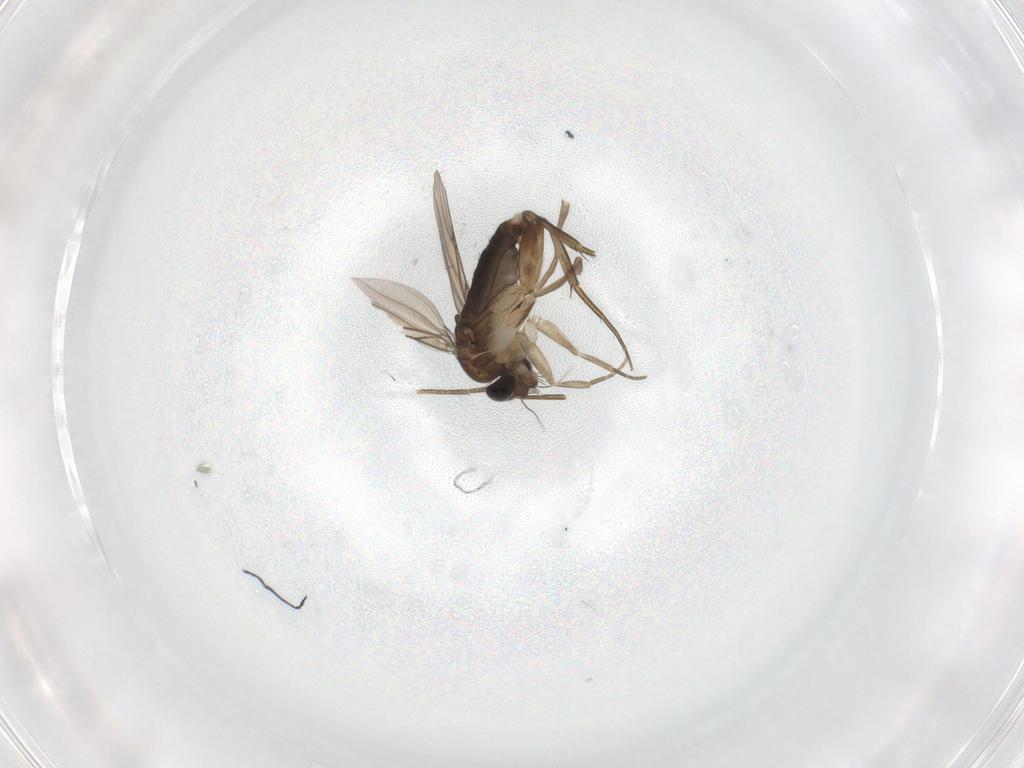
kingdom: Animalia
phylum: Arthropoda
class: Insecta
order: Diptera
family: Phoridae
